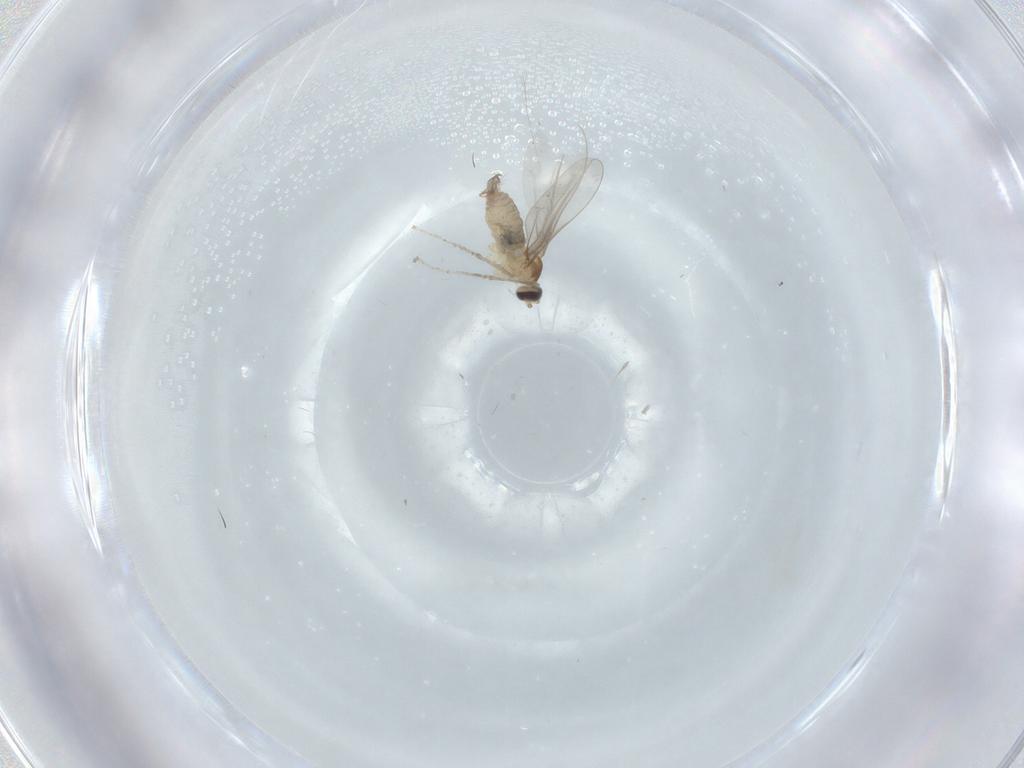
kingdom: Animalia
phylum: Arthropoda
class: Insecta
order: Diptera
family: Cecidomyiidae
